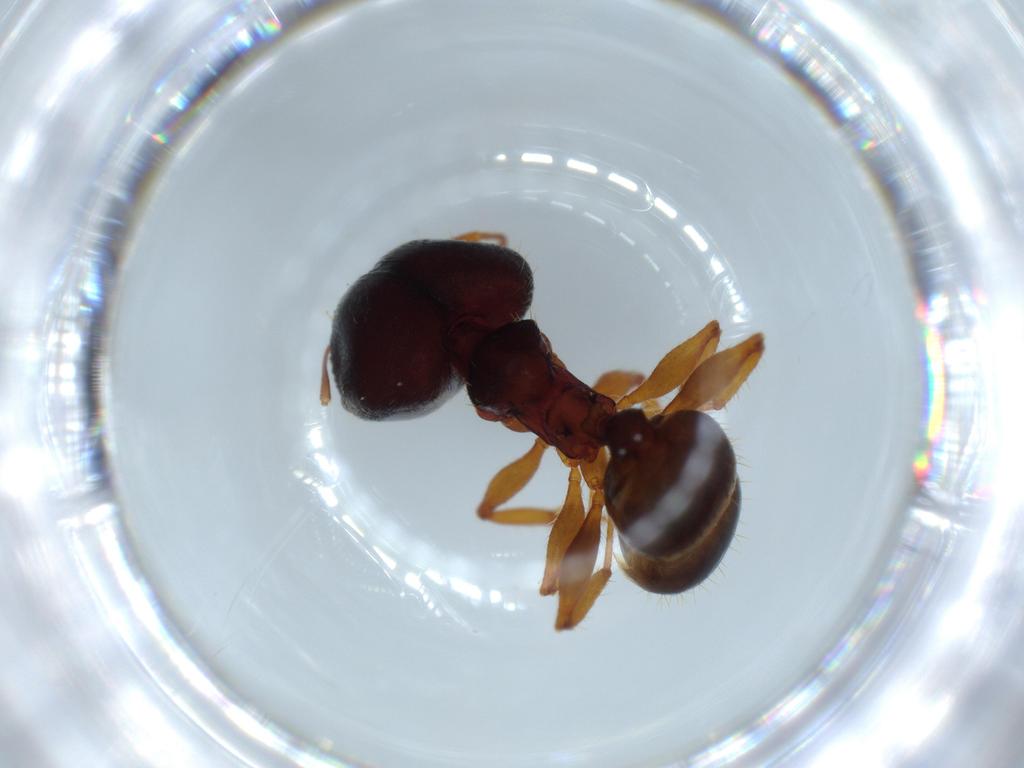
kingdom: Animalia
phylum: Arthropoda
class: Insecta
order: Hymenoptera
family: Formicidae
